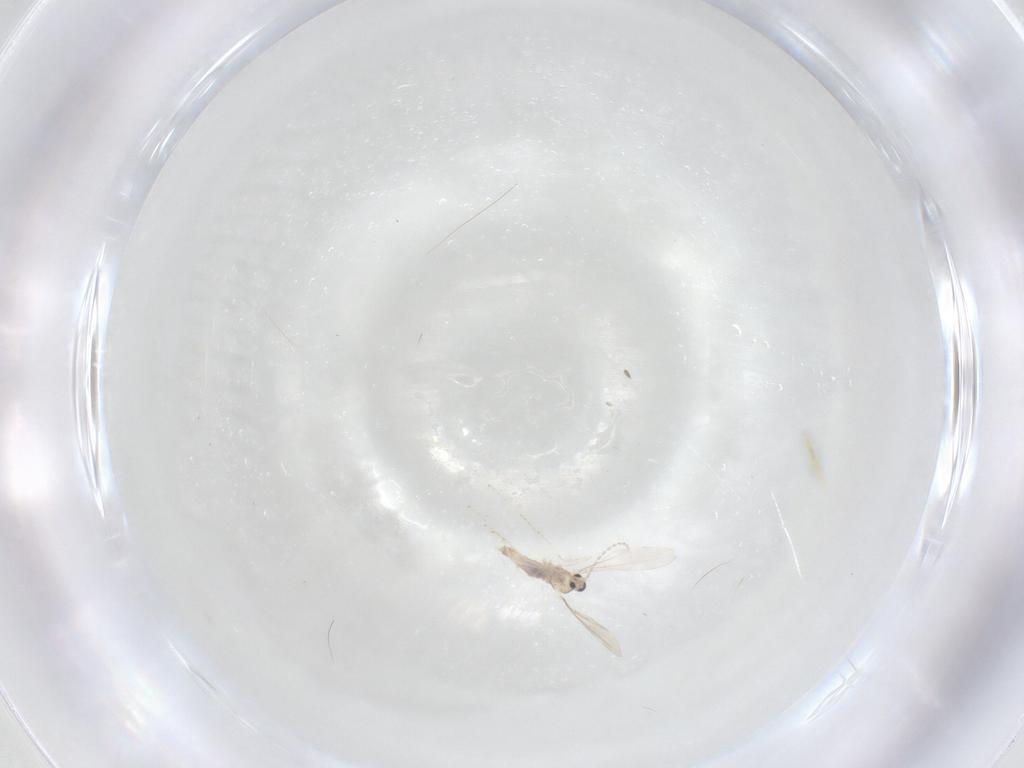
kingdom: Animalia
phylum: Arthropoda
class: Insecta
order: Diptera
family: Cecidomyiidae
